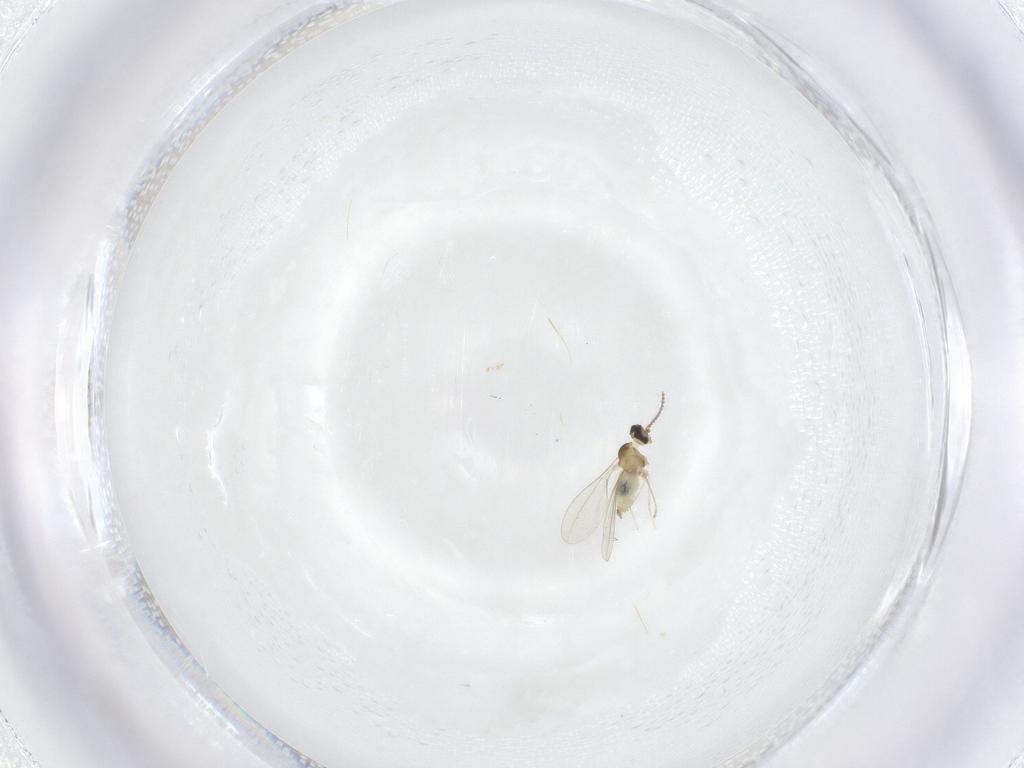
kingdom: Animalia
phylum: Arthropoda
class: Insecta
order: Diptera
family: Cecidomyiidae
